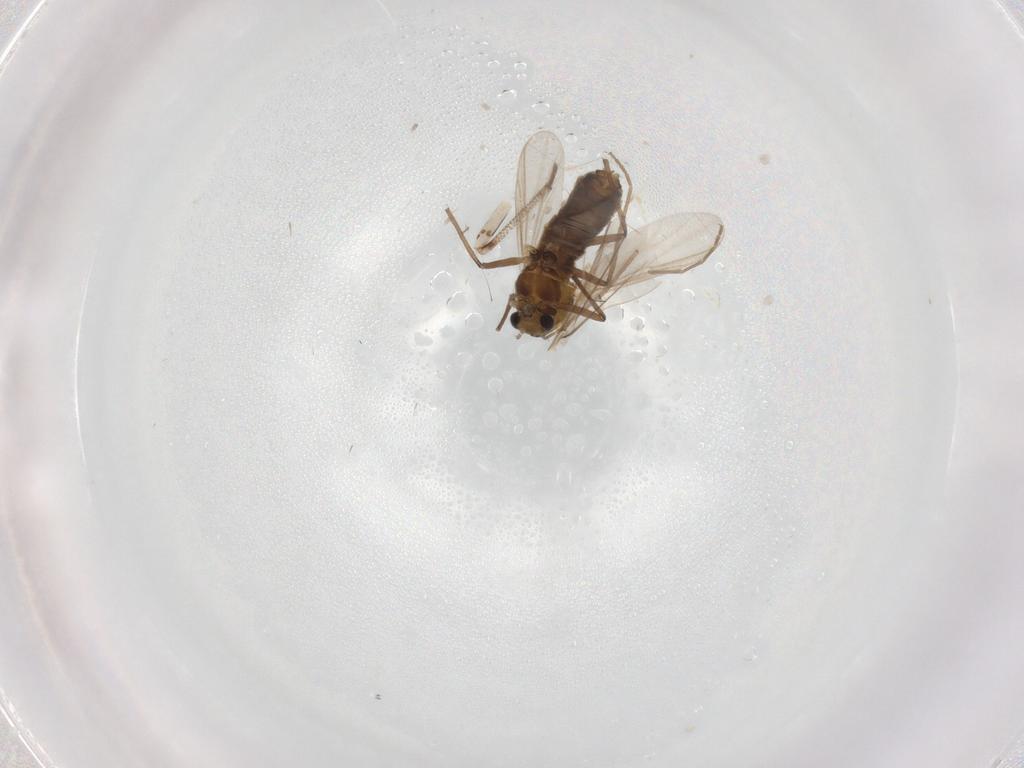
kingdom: Animalia
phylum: Arthropoda
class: Insecta
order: Diptera
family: Chironomidae
